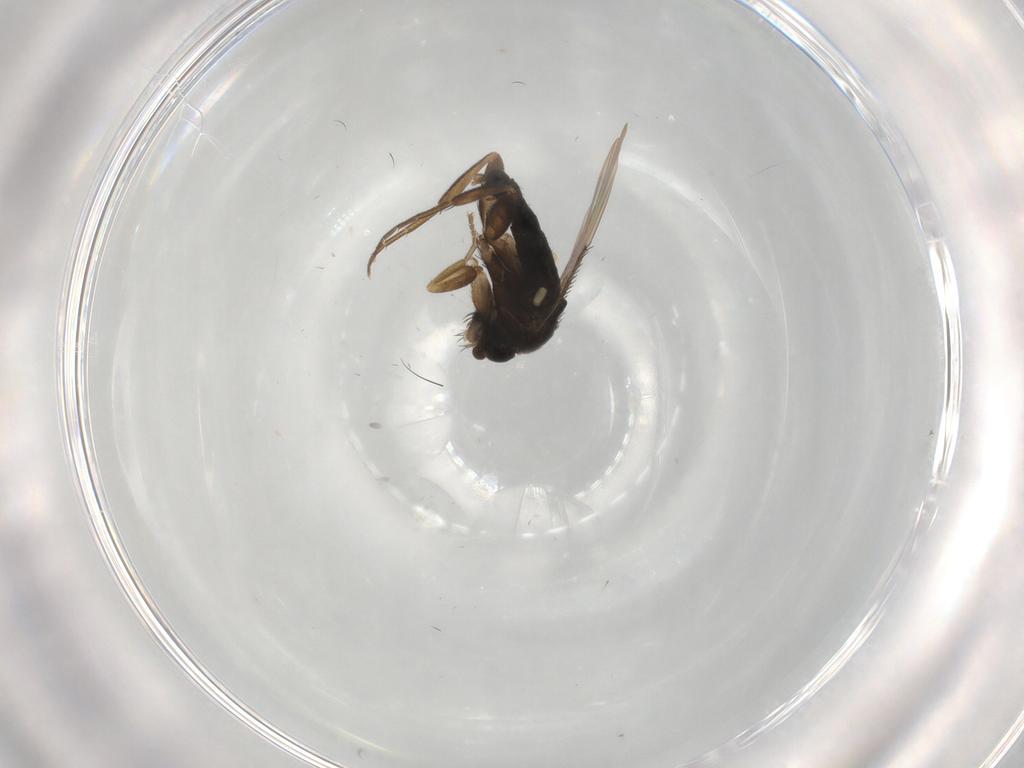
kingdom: Animalia
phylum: Arthropoda
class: Insecta
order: Diptera
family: Phoridae
